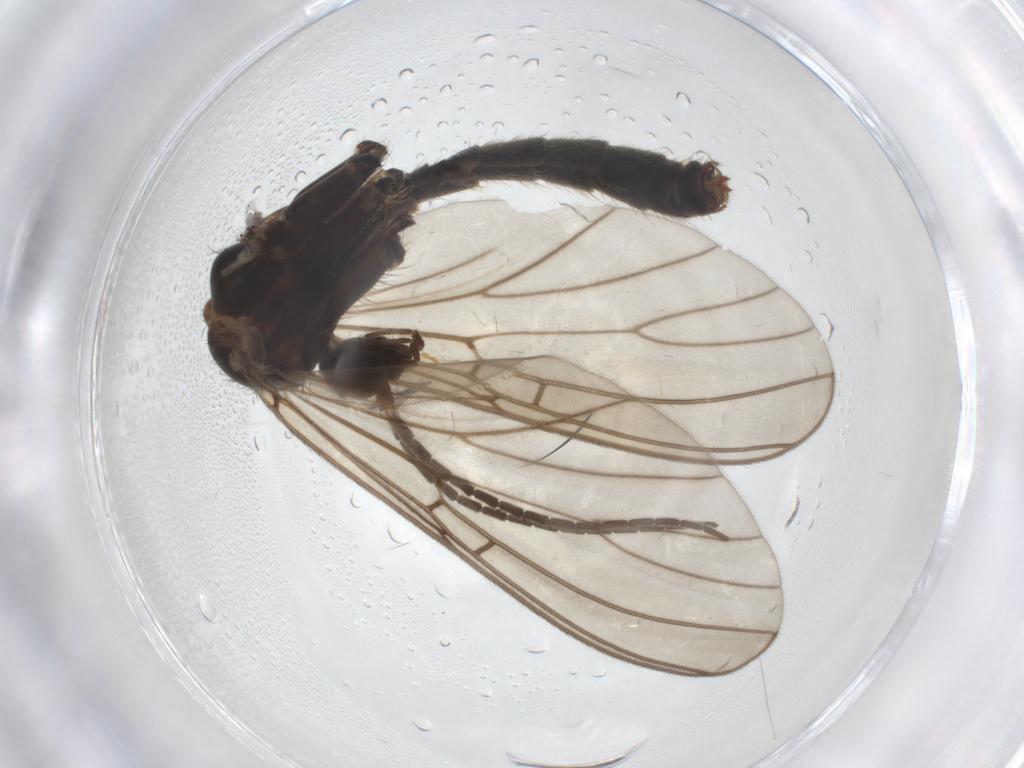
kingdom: Animalia
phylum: Arthropoda
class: Insecta
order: Diptera
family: Mycetophilidae
